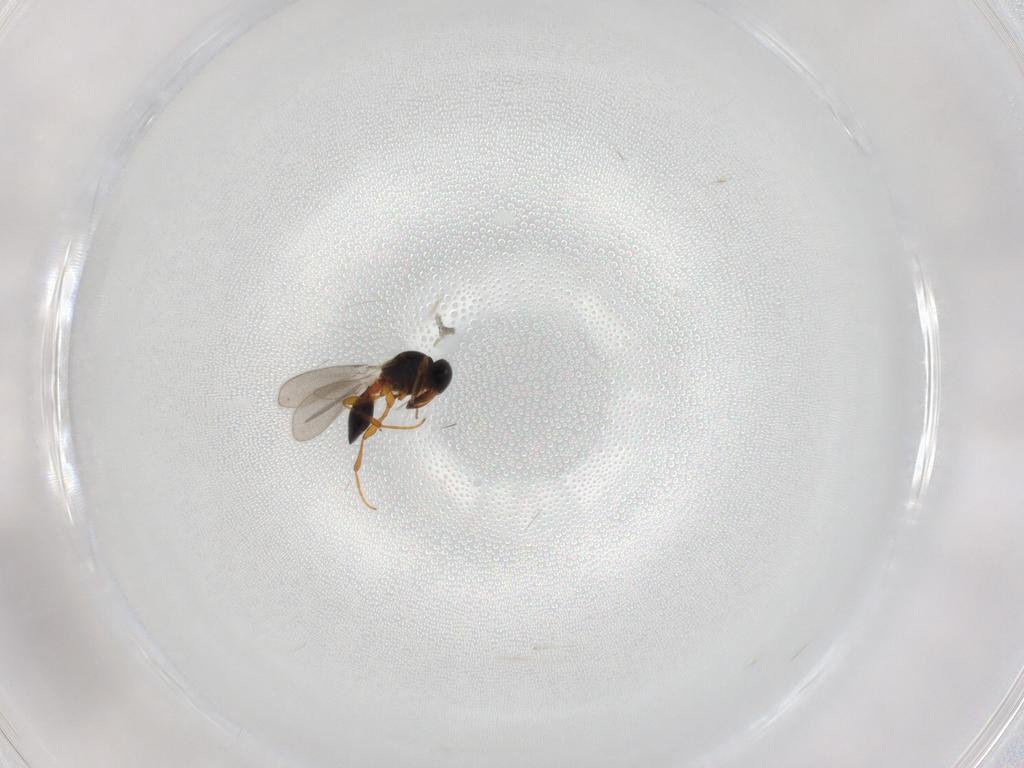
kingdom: Animalia
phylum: Arthropoda
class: Insecta
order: Hymenoptera
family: Platygastridae
